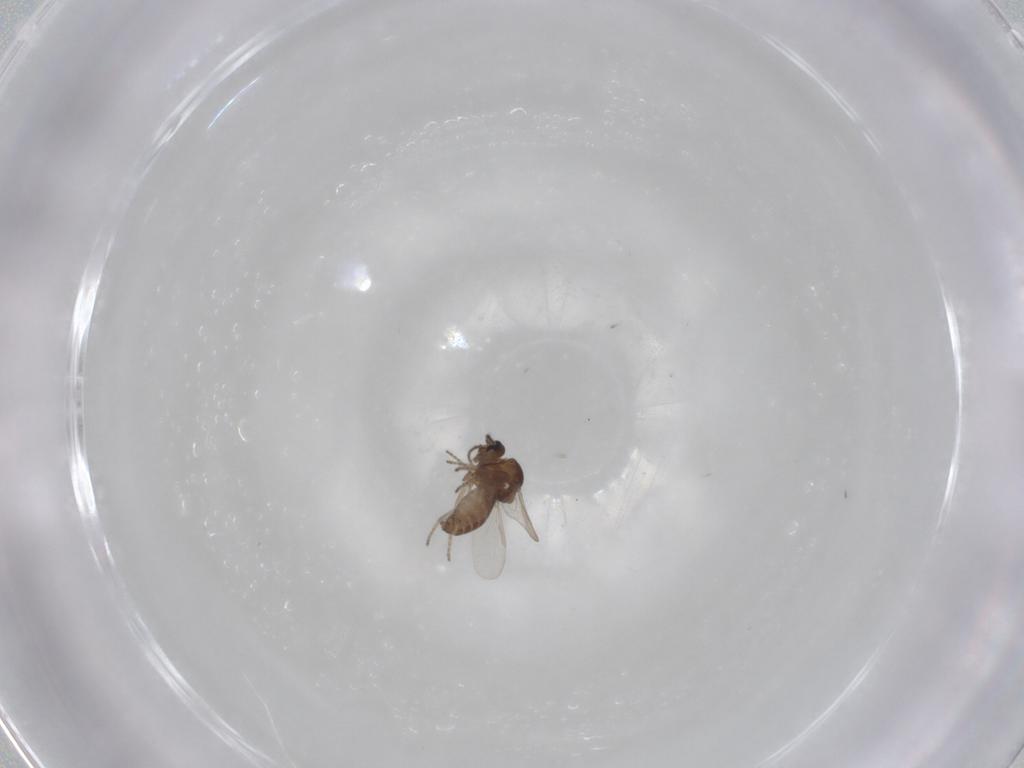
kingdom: Animalia
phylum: Arthropoda
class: Insecta
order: Diptera
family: Ceratopogonidae
